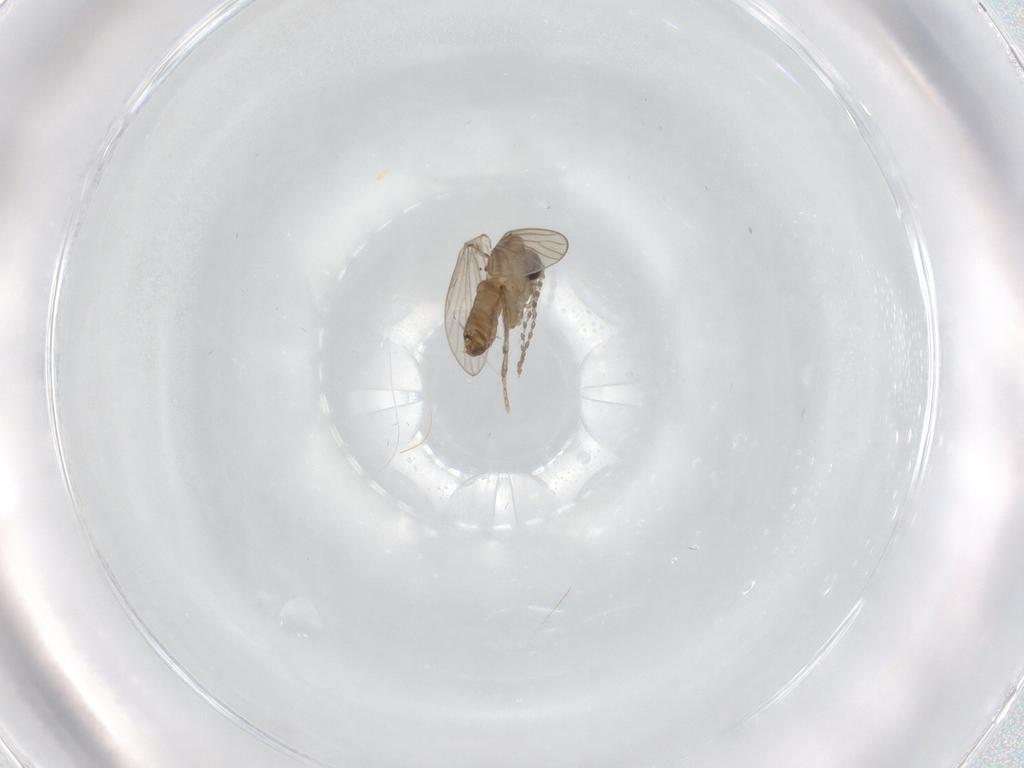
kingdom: Animalia
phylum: Arthropoda
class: Insecta
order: Diptera
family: Psychodidae
